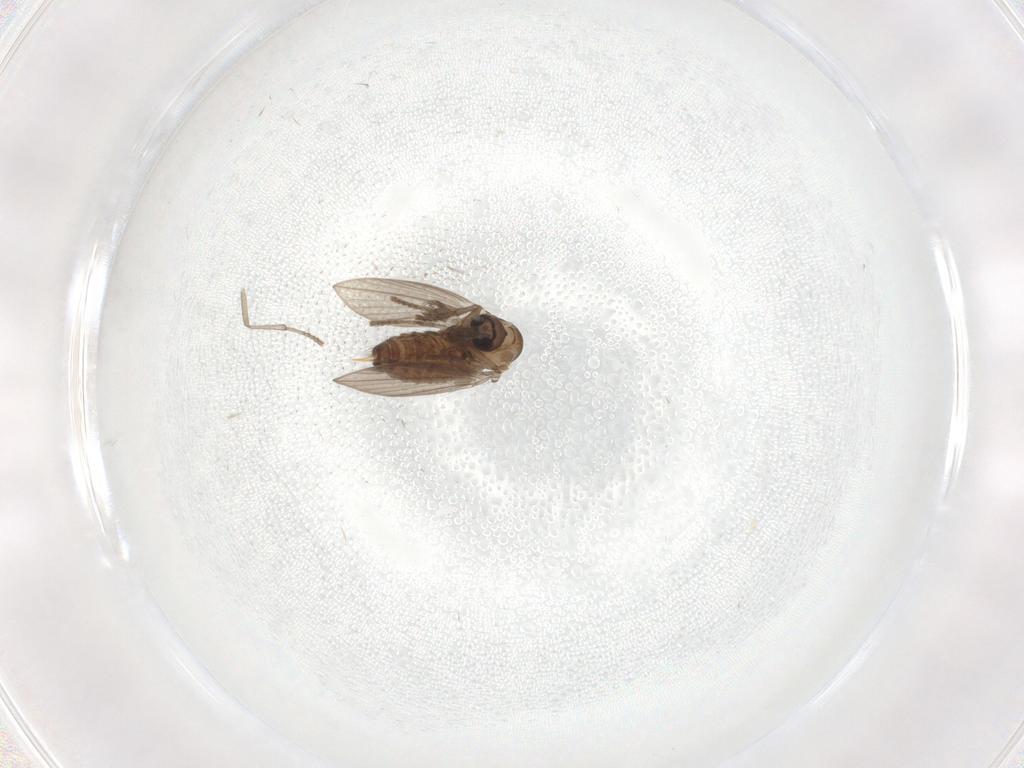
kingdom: Animalia
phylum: Arthropoda
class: Insecta
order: Diptera
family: Psychodidae
